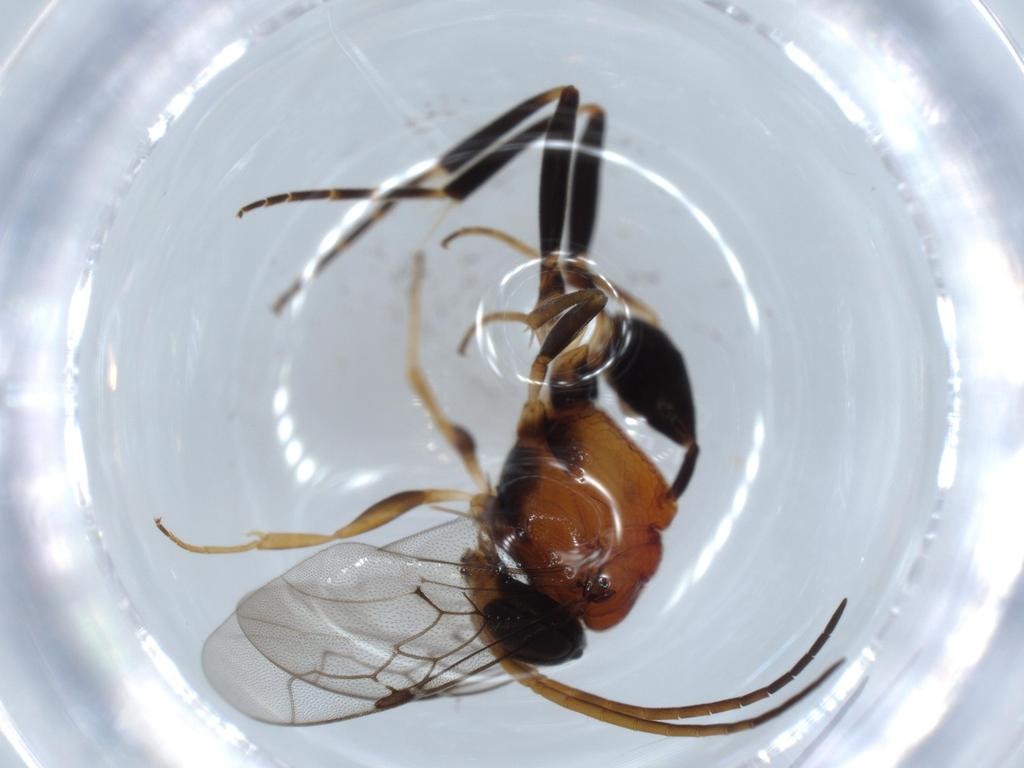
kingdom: Animalia
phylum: Arthropoda
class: Insecta
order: Hymenoptera
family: Evaniidae
